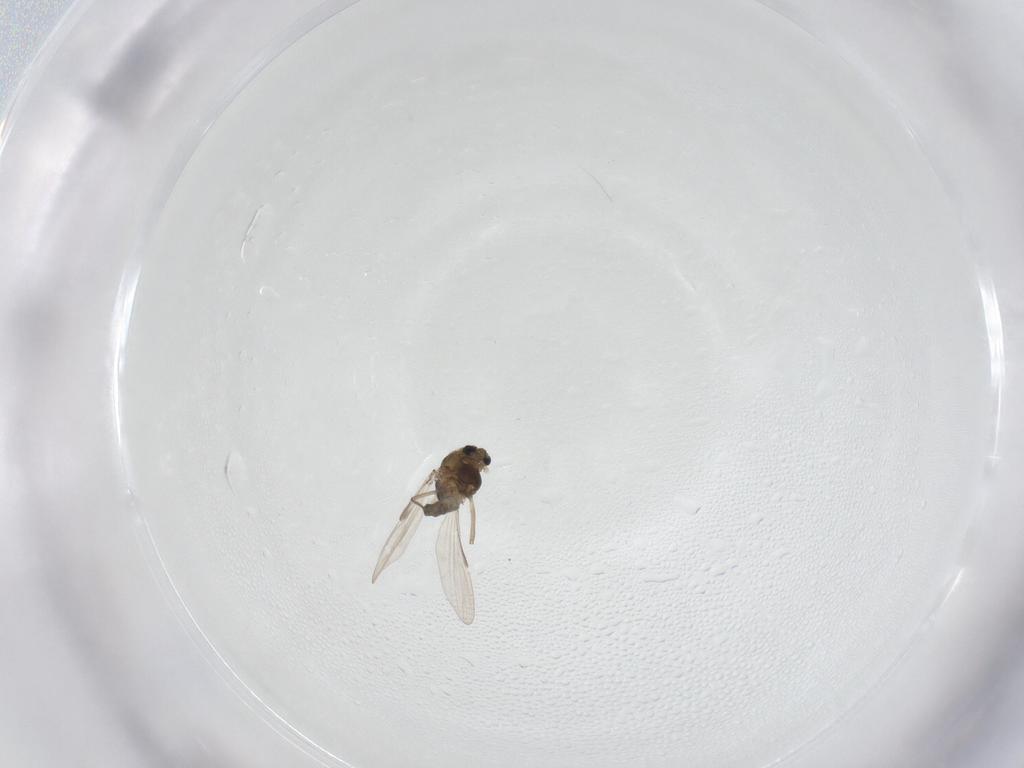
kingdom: Animalia
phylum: Arthropoda
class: Insecta
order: Diptera
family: Chironomidae
